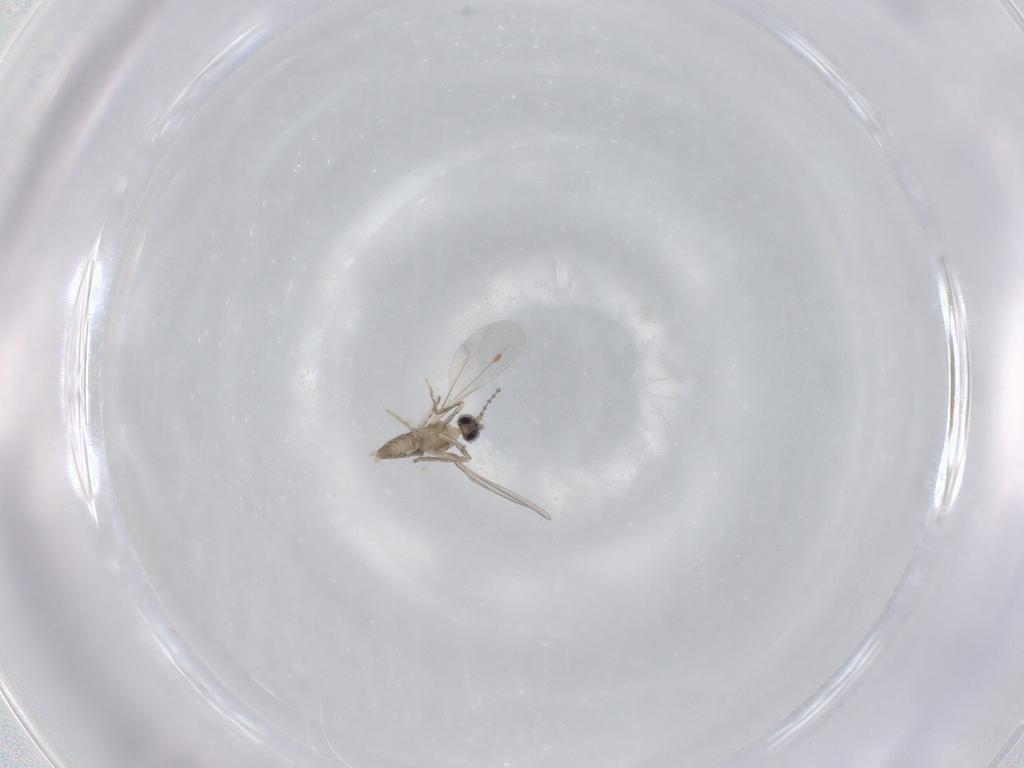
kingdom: Animalia
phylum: Arthropoda
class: Insecta
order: Diptera
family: Cecidomyiidae
